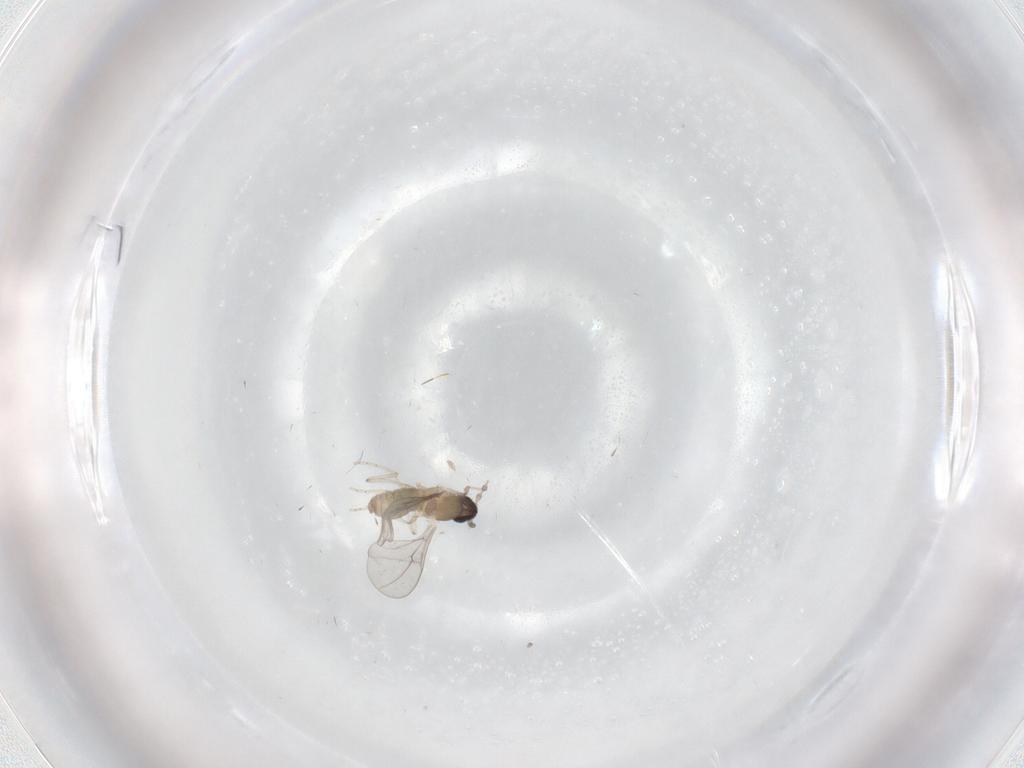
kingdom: Animalia
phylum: Arthropoda
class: Insecta
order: Diptera
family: Cecidomyiidae
